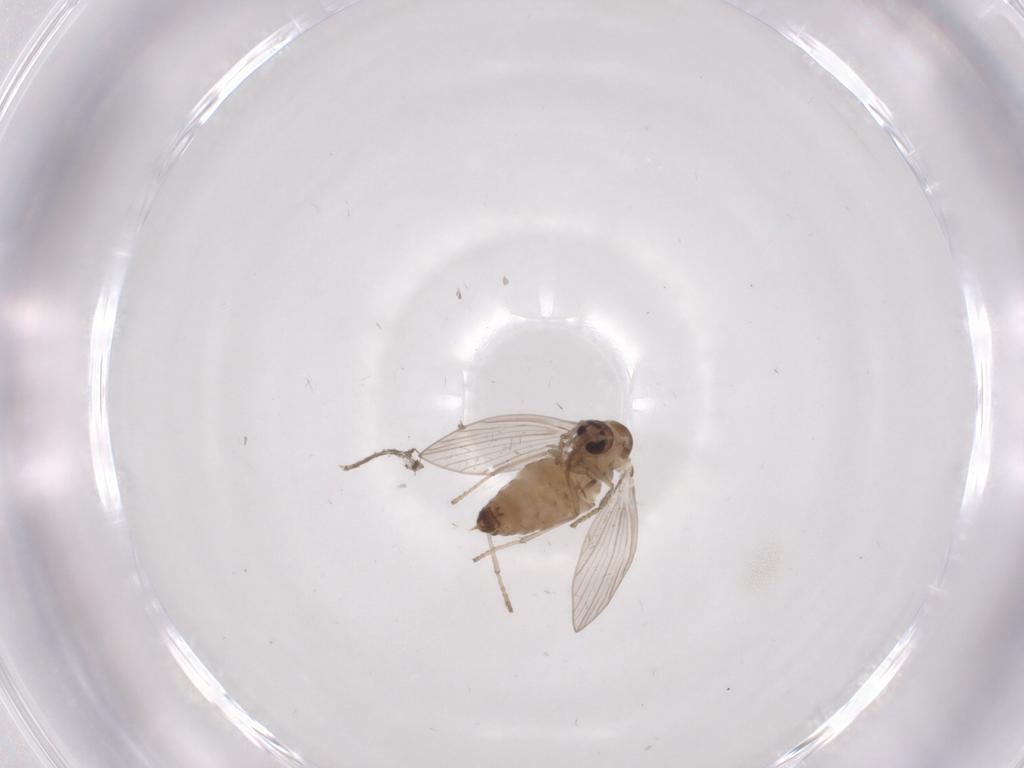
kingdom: Animalia
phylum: Arthropoda
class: Insecta
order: Diptera
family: Psychodidae
